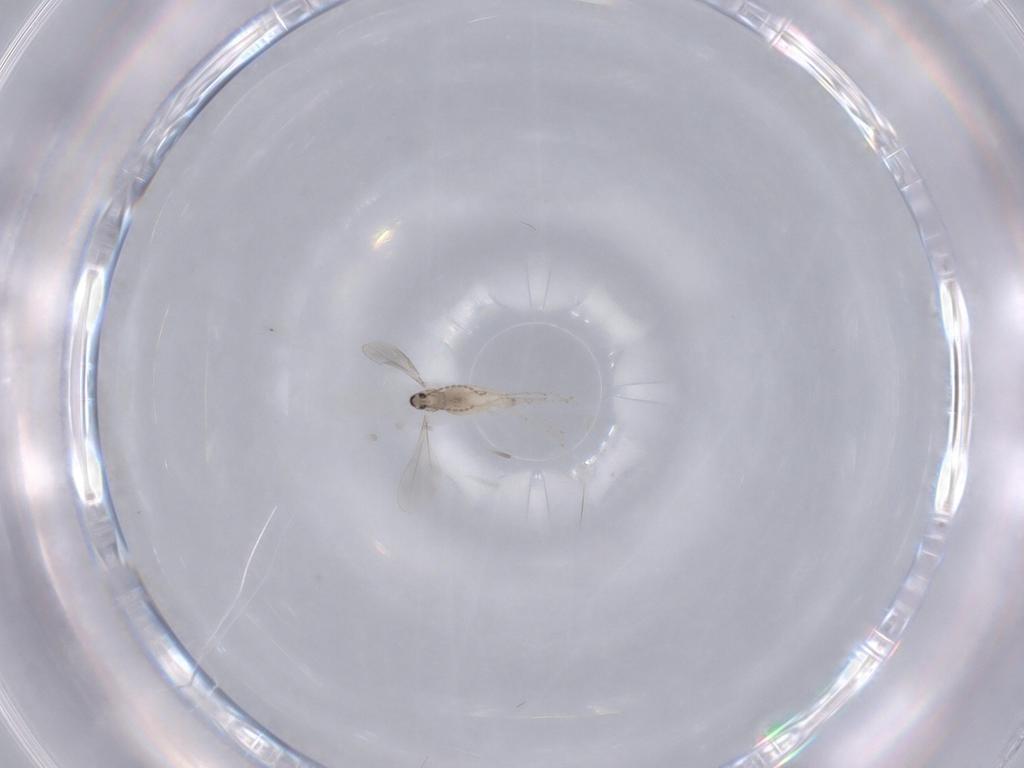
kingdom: Animalia
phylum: Arthropoda
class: Insecta
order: Diptera
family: Cecidomyiidae
